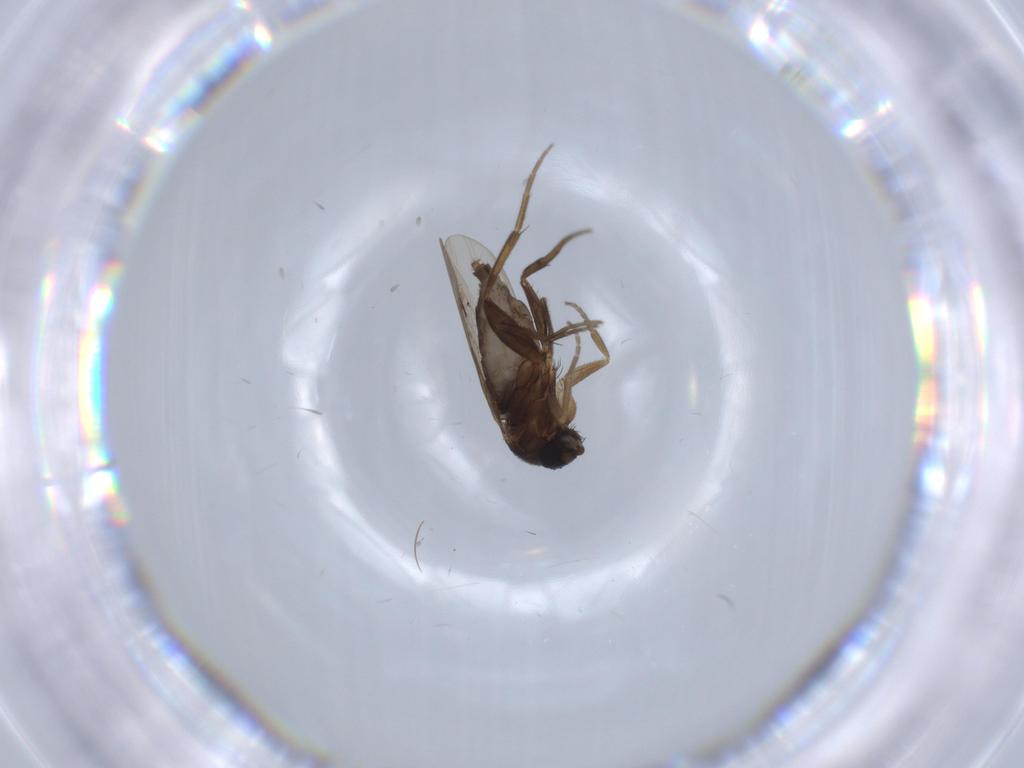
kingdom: Animalia
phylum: Arthropoda
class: Insecta
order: Diptera
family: Phoridae
